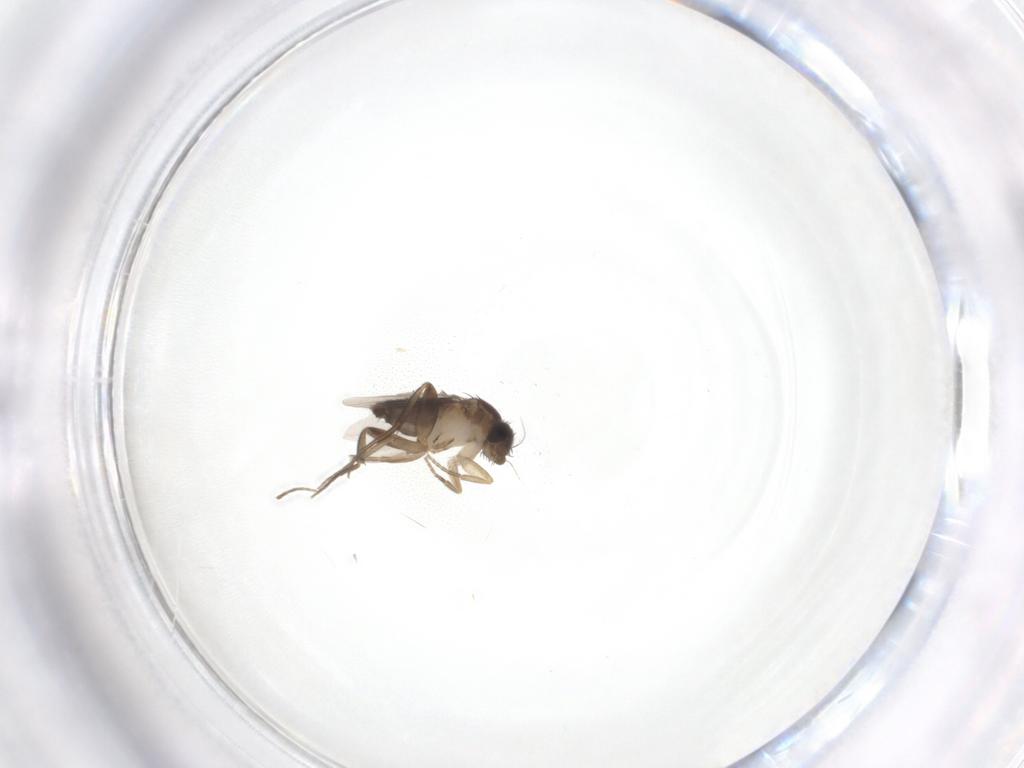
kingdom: Animalia
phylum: Arthropoda
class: Insecta
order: Diptera
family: Phoridae
